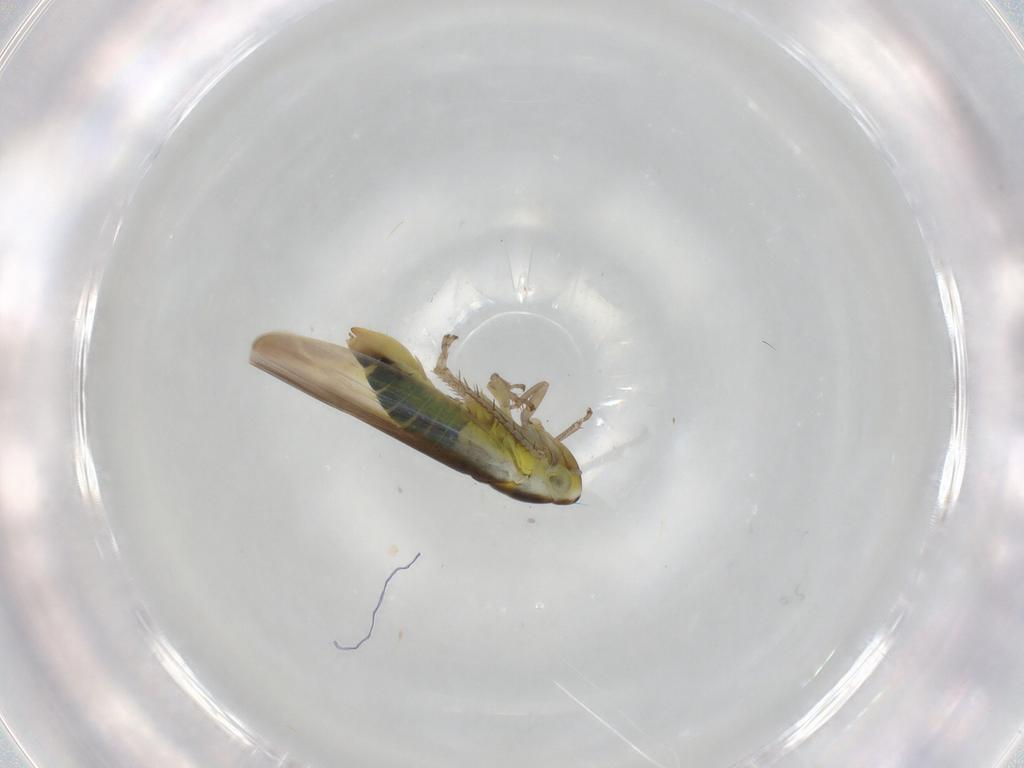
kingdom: Animalia
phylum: Arthropoda
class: Insecta
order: Hemiptera
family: Cicadellidae
